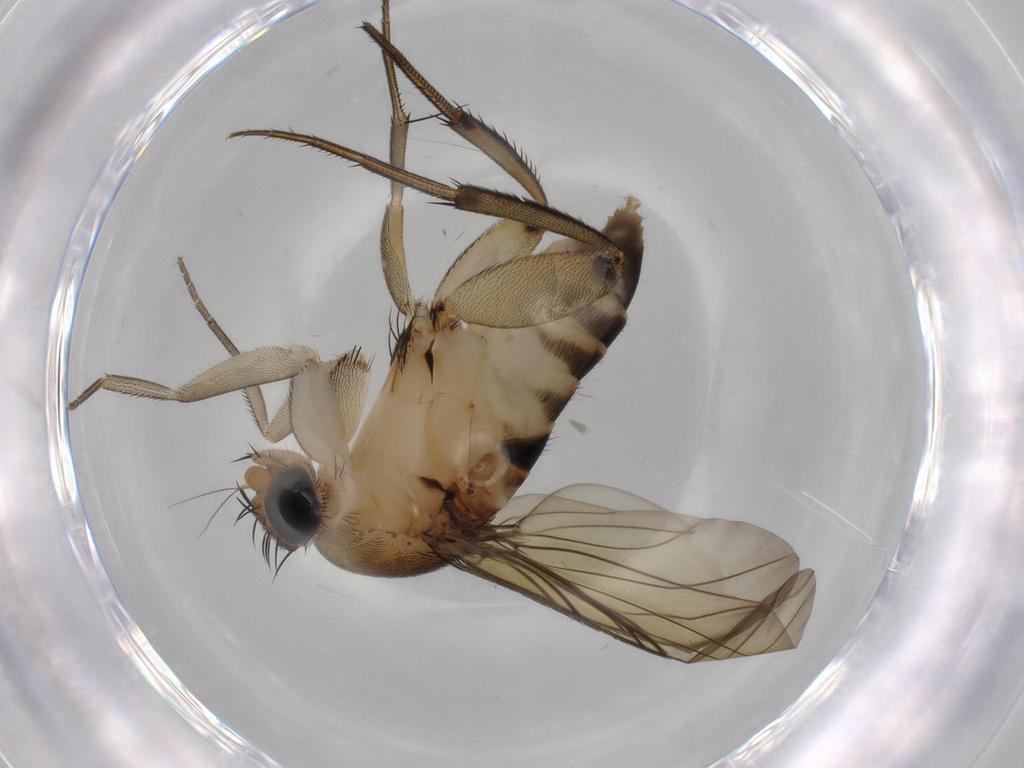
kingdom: Animalia
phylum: Arthropoda
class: Insecta
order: Diptera
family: Phoridae
